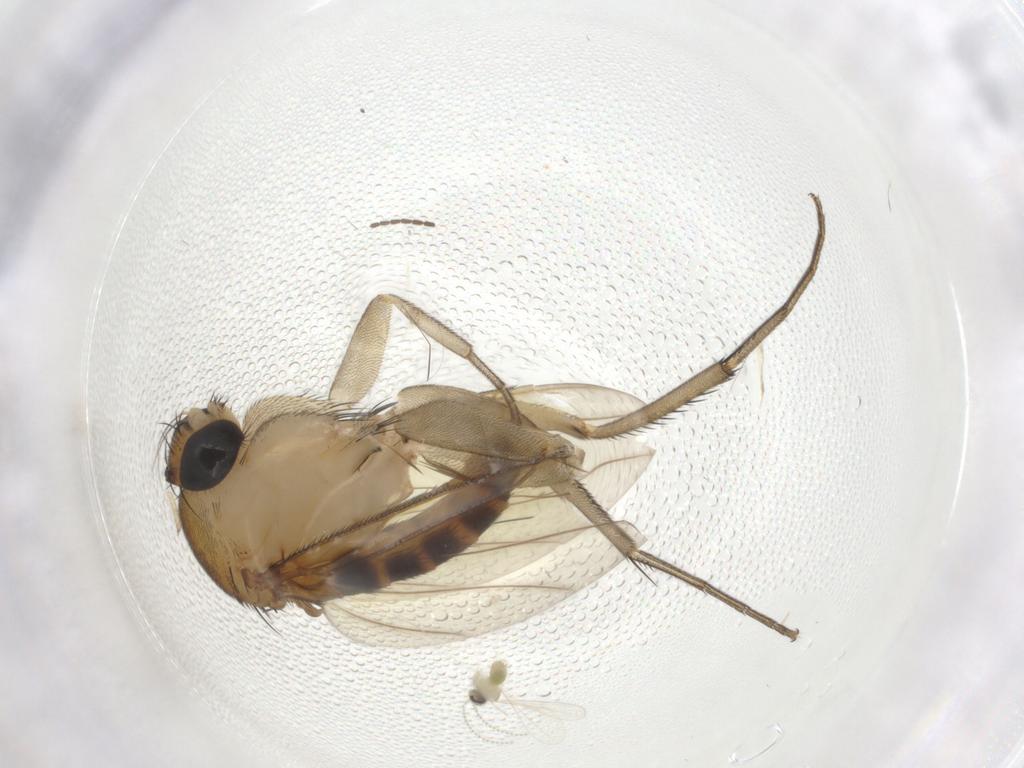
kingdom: Animalia
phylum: Arthropoda
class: Insecta
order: Diptera
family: Phoridae
